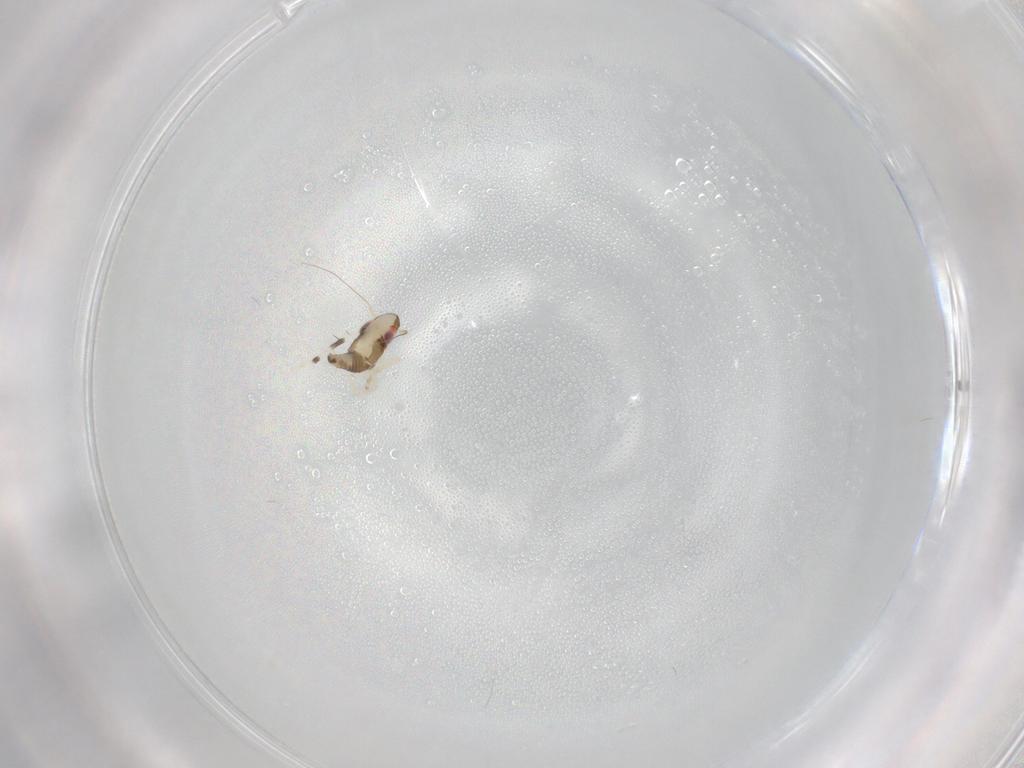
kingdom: Animalia
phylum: Arthropoda
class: Insecta
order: Hemiptera
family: Cicadellidae
